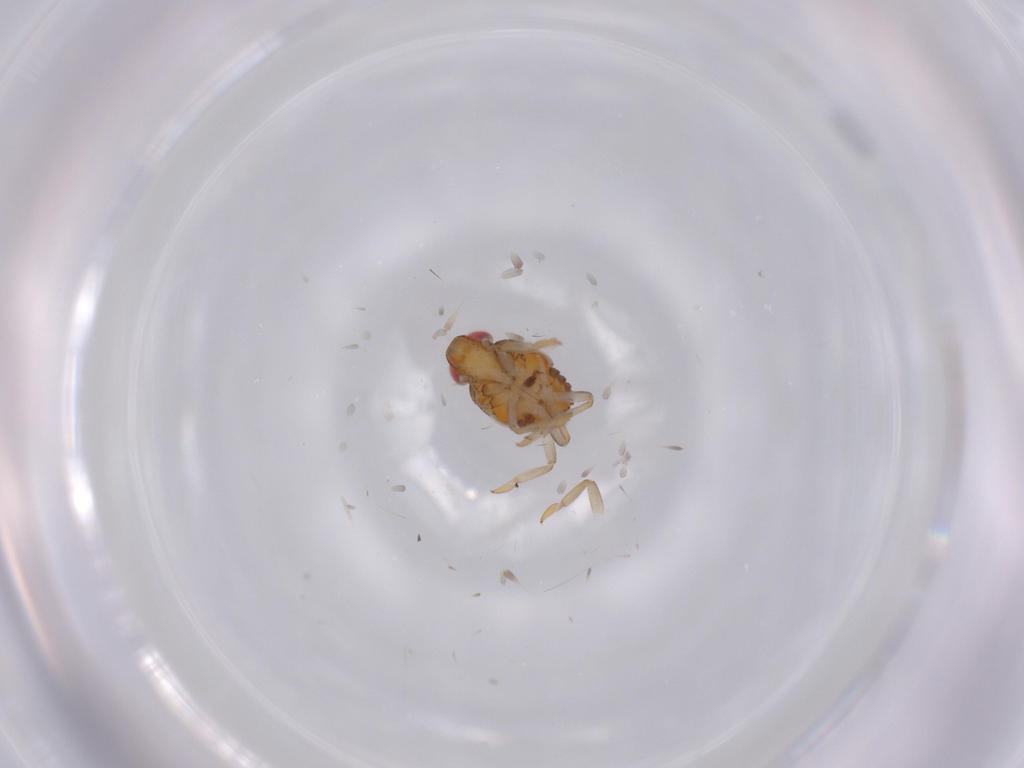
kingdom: Animalia
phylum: Arthropoda
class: Insecta
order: Hemiptera
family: Issidae
